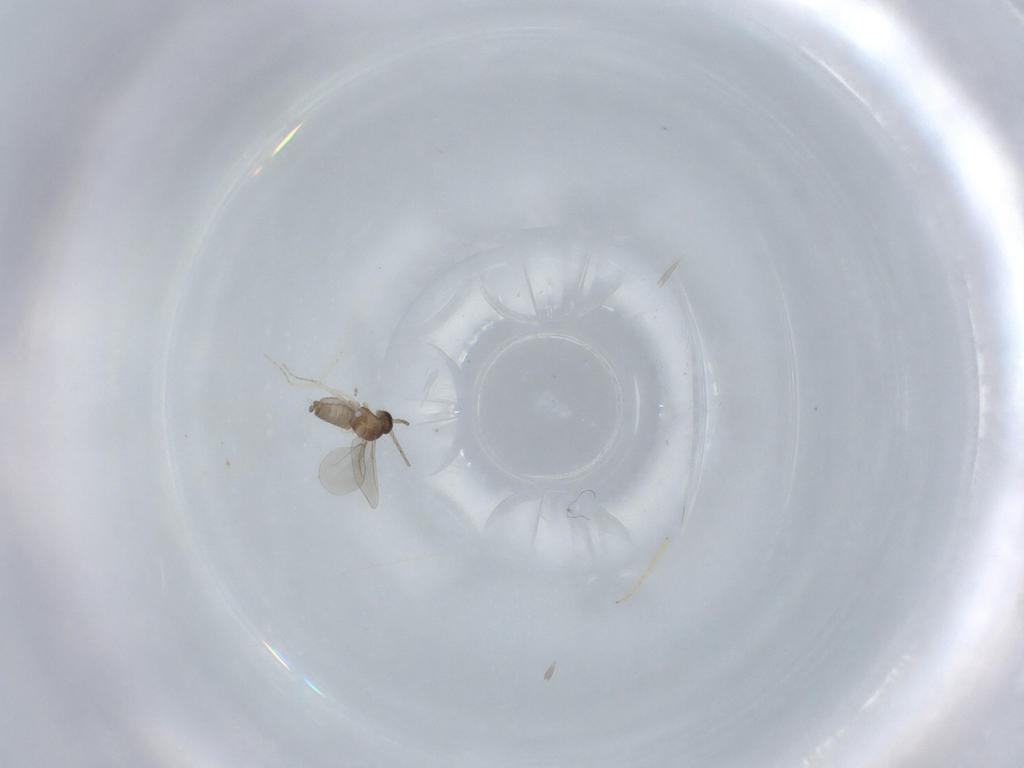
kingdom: Animalia
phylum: Arthropoda
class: Insecta
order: Diptera
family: Cecidomyiidae
